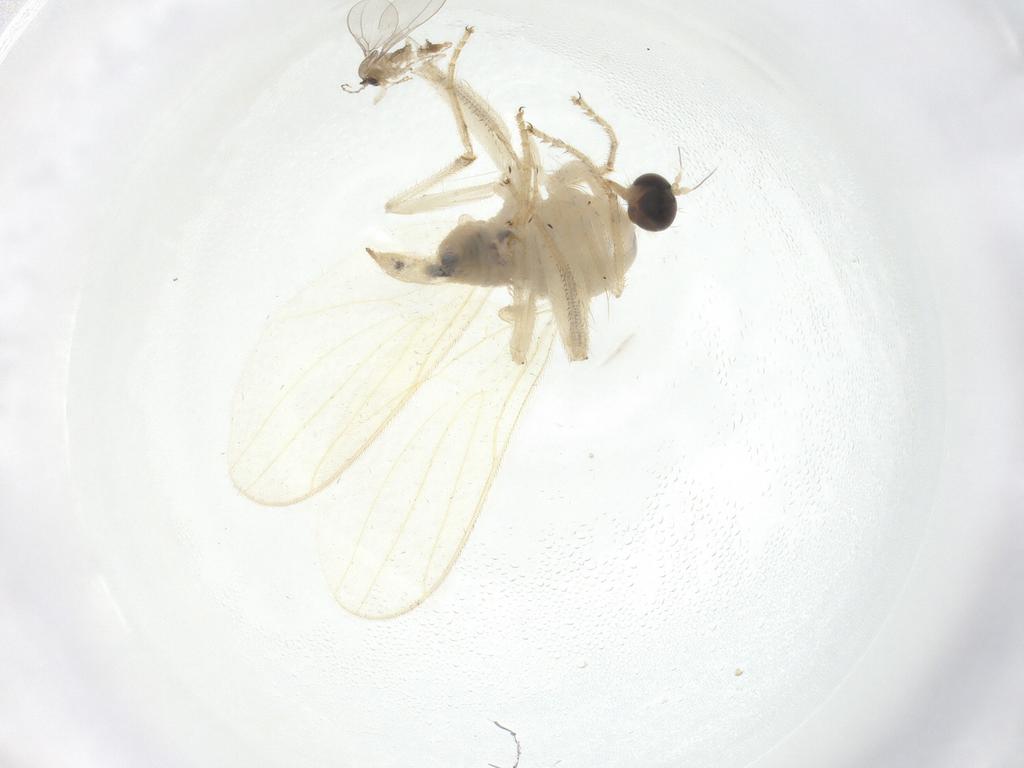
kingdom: Animalia
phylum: Arthropoda
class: Insecta
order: Diptera
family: Cecidomyiidae
